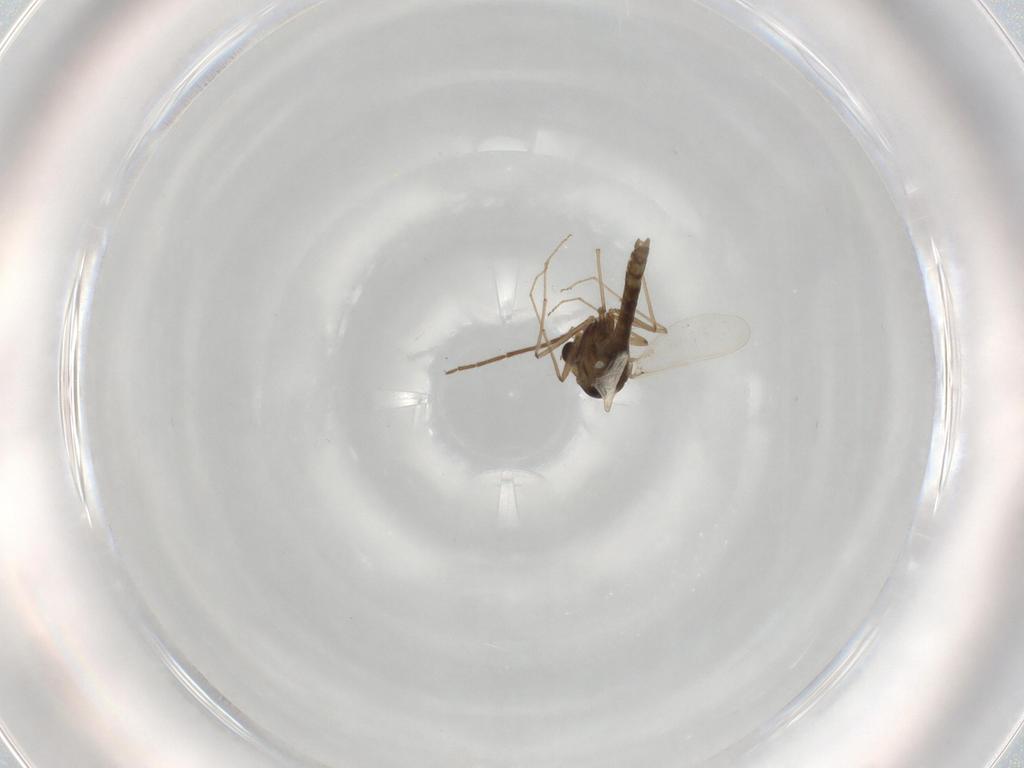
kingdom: Animalia
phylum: Arthropoda
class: Insecta
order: Diptera
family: Chironomidae
